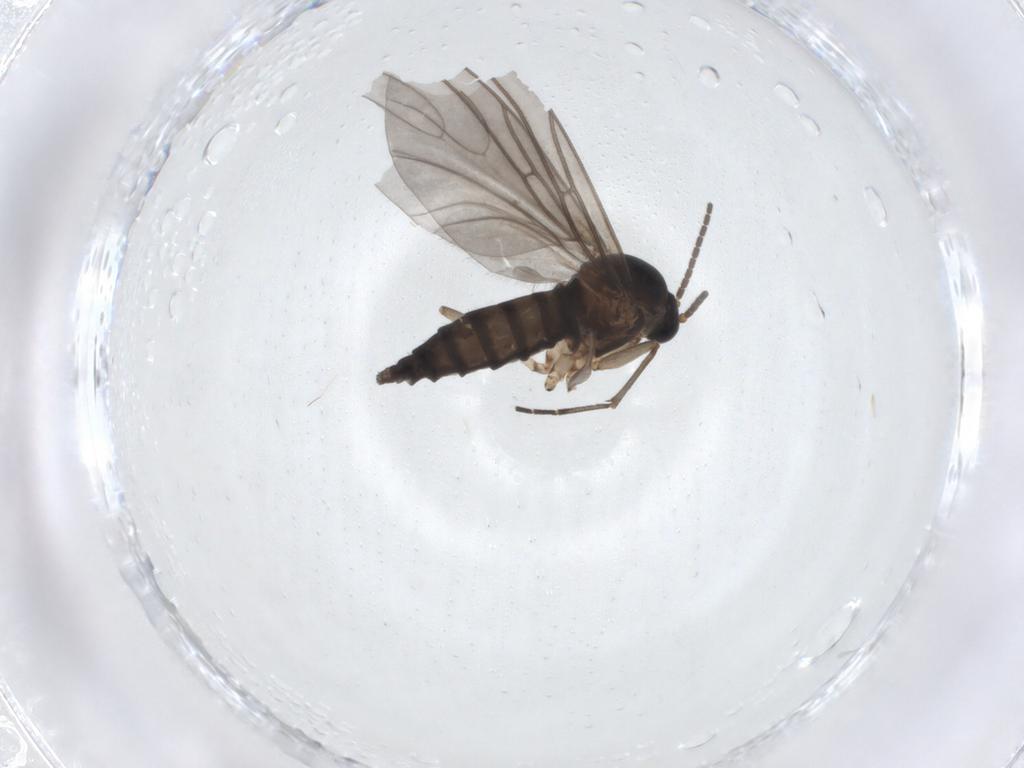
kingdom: Animalia
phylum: Arthropoda
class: Insecta
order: Diptera
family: Sciaridae
